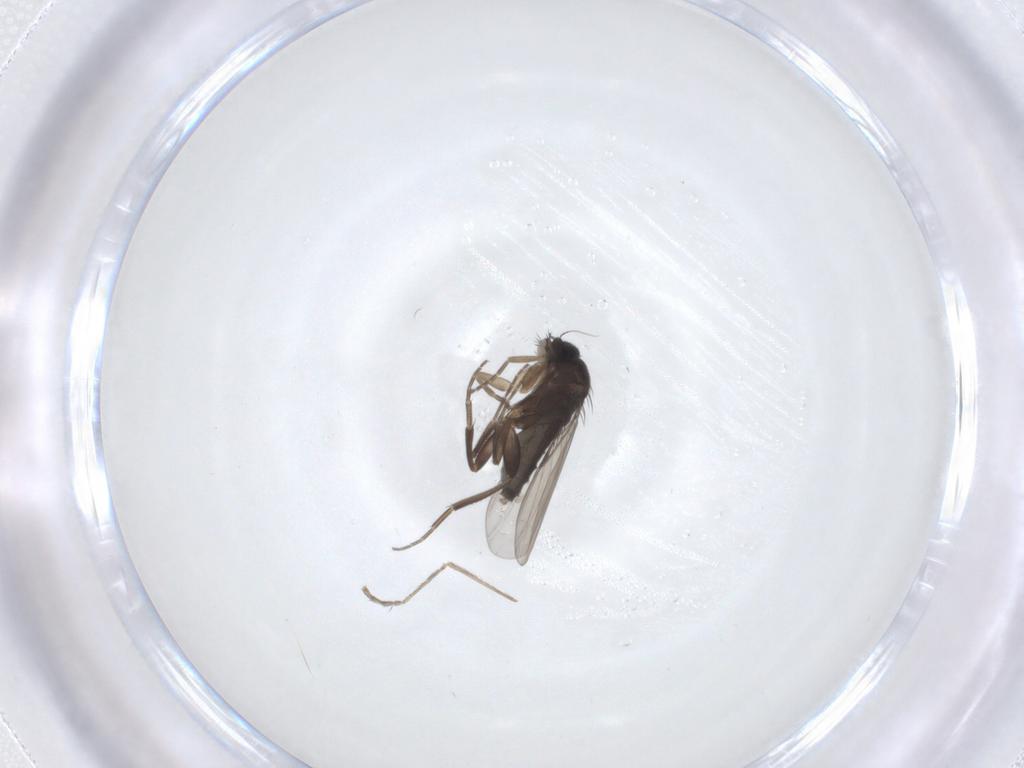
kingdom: Animalia
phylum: Arthropoda
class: Insecta
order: Diptera
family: Phoridae
